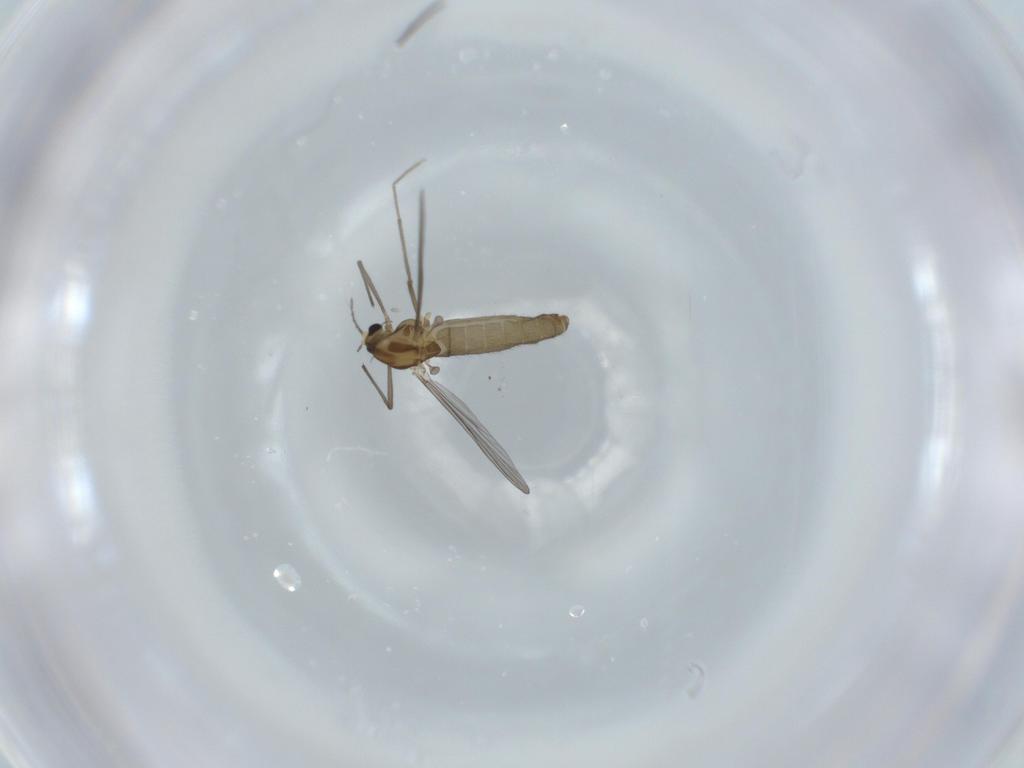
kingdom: Animalia
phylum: Arthropoda
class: Insecta
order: Diptera
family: Chironomidae
